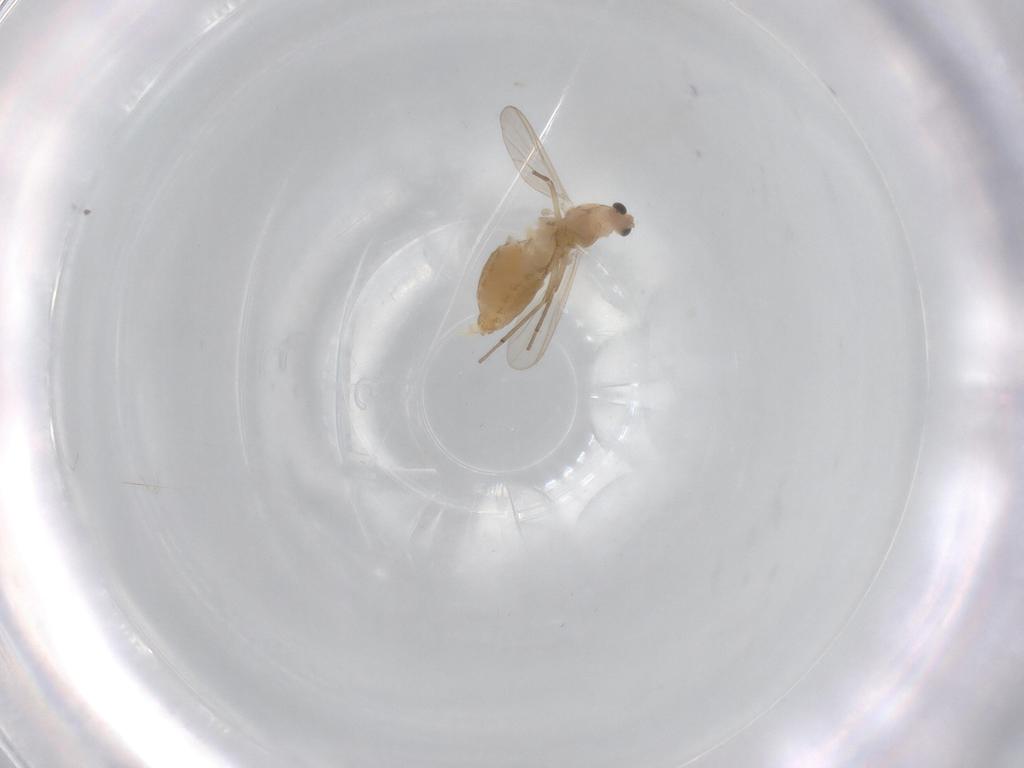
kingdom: Animalia
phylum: Arthropoda
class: Insecta
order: Diptera
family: Chironomidae
